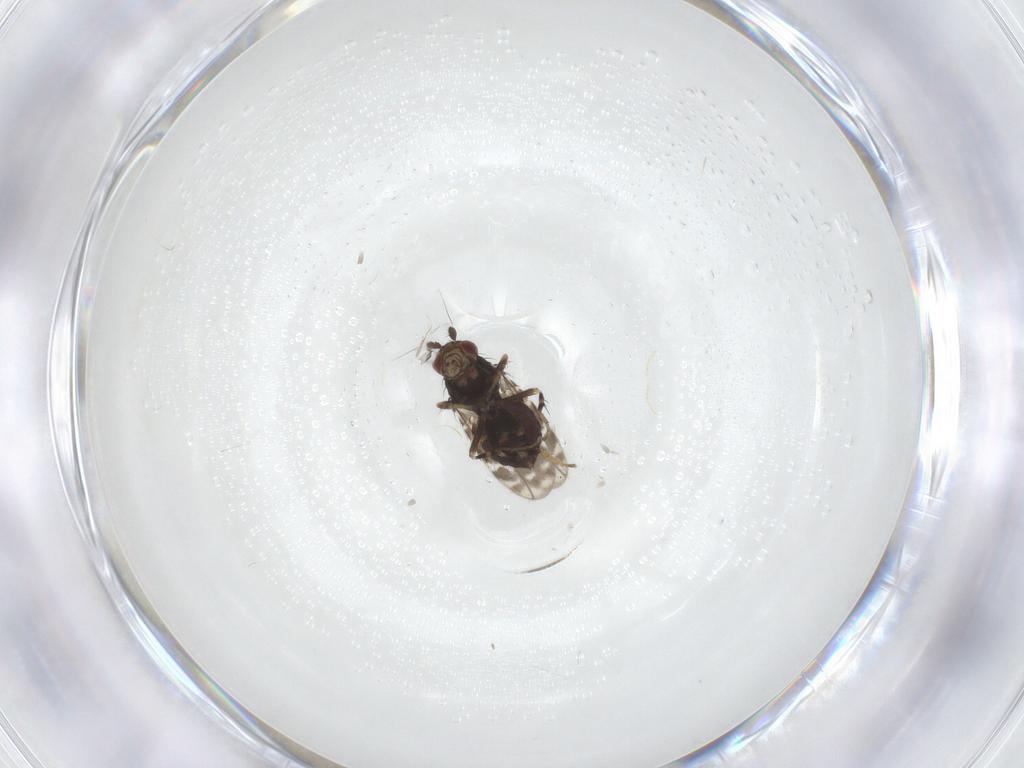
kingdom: Animalia
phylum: Arthropoda
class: Insecta
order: Diptera
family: Sphaeroceridae
